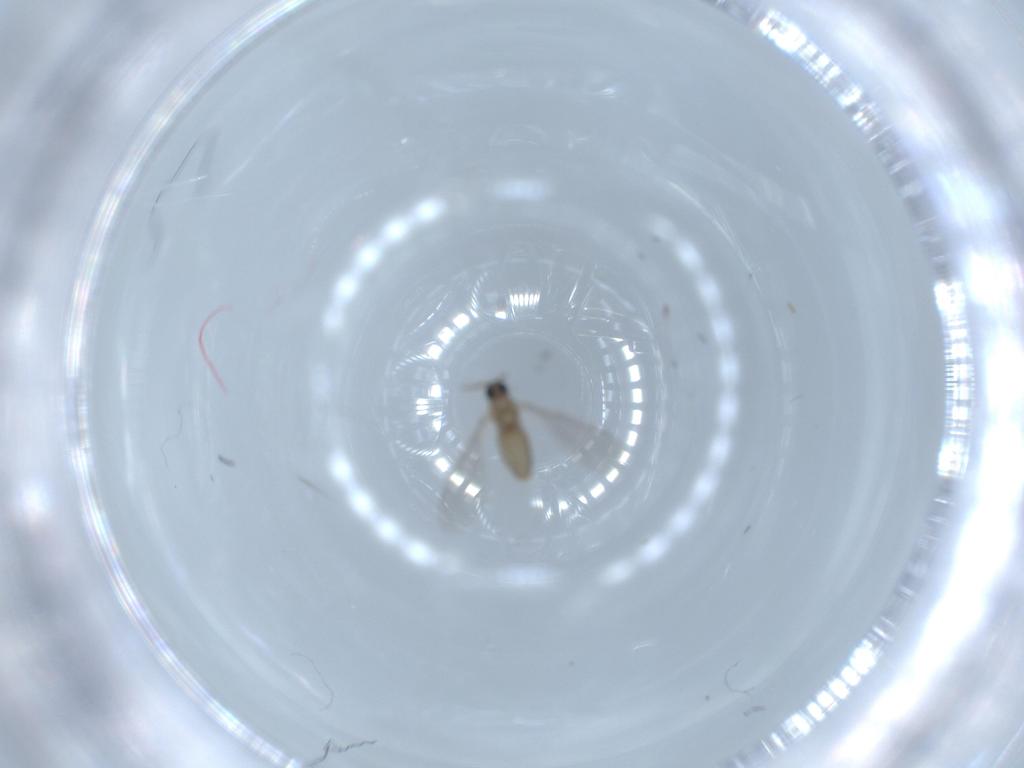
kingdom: Animalia
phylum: Arthropoda
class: Insecta
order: Diptera
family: Cecidomyiidae
